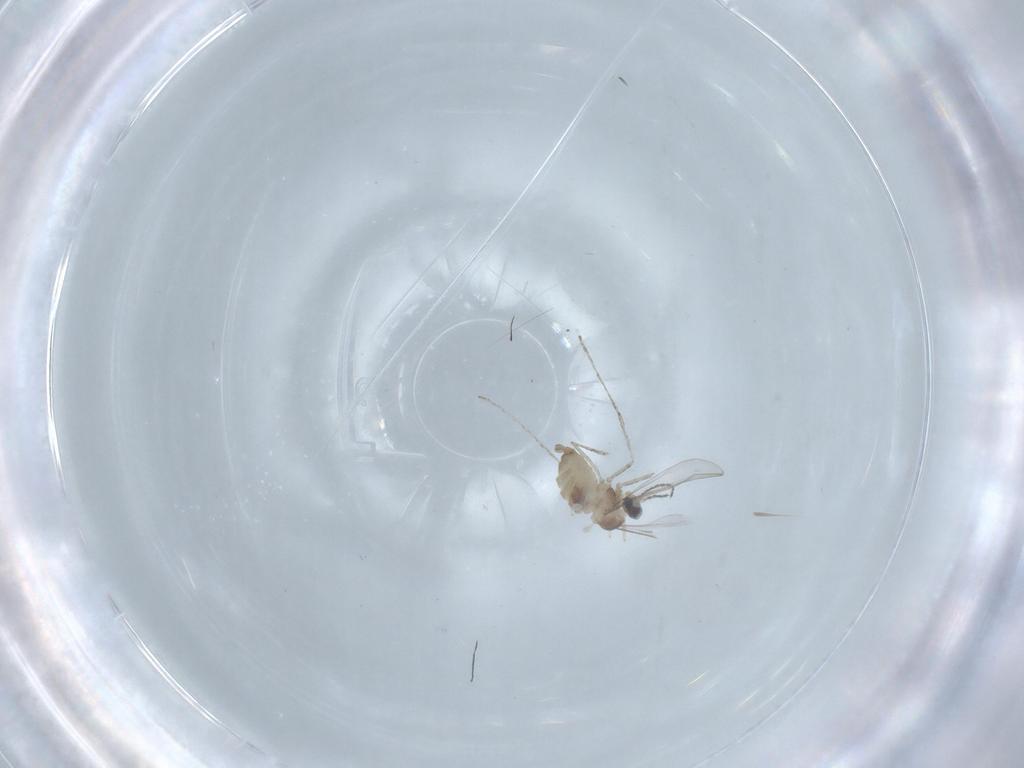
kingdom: Animalia
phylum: Arthropoda
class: Insecta
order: Diptera
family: Cecidomyiidae
